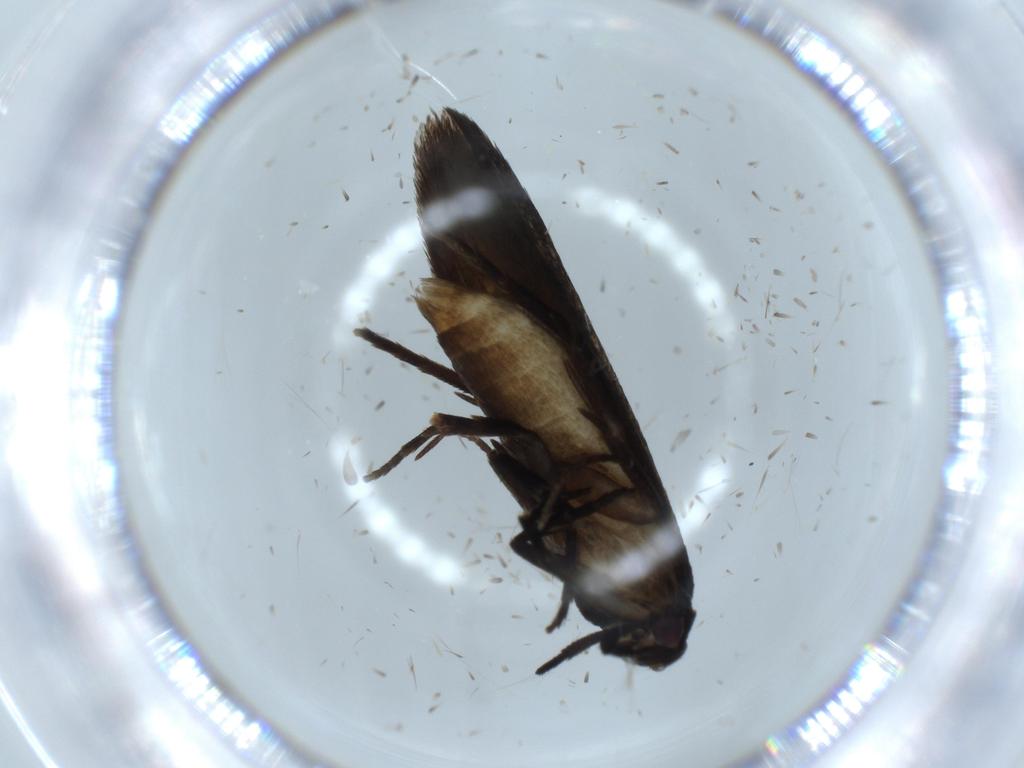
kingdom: Animalia
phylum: Arthropoda
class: Insecta
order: Lepidoptera
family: Cosmopterigidae
